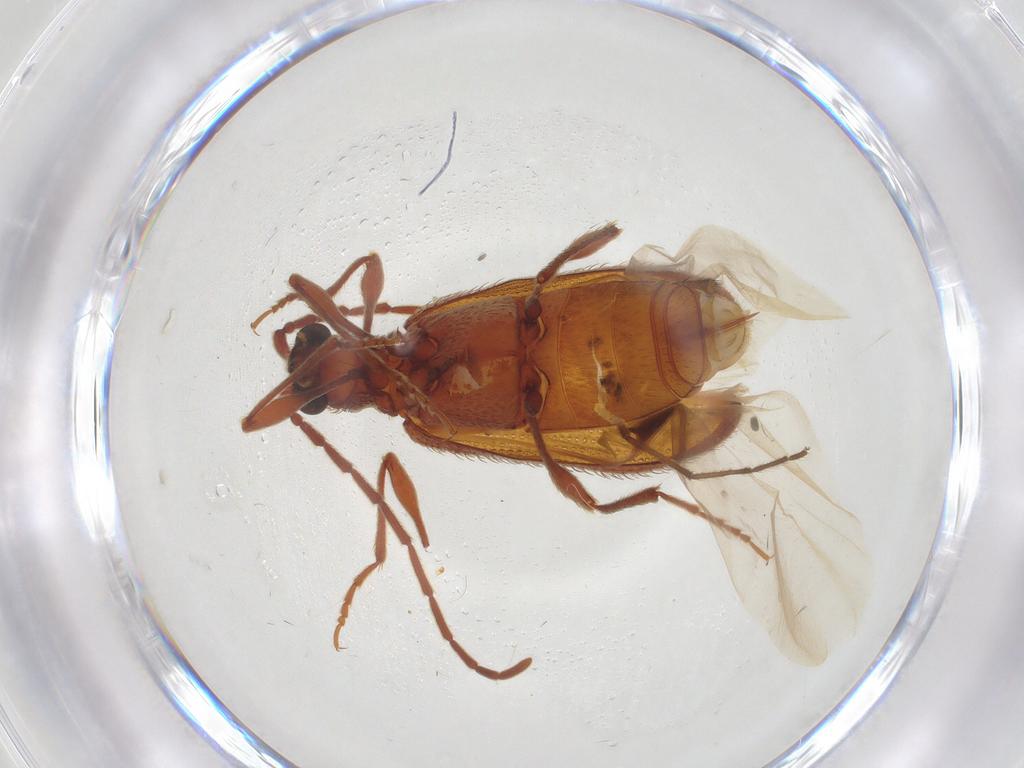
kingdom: Animalia
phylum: Arthropoda
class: Insecta
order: Coleoptera
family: Ptinidae
